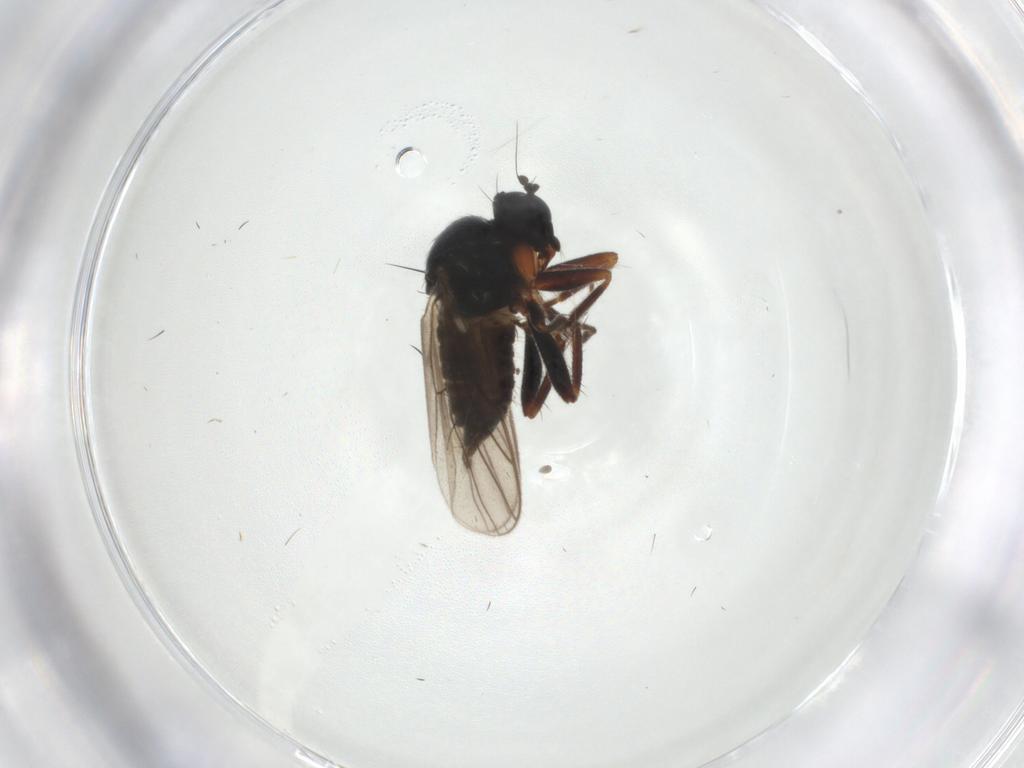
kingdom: Animalia
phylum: Arthropoda
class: Insecta
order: Diptera
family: Hybotidae
